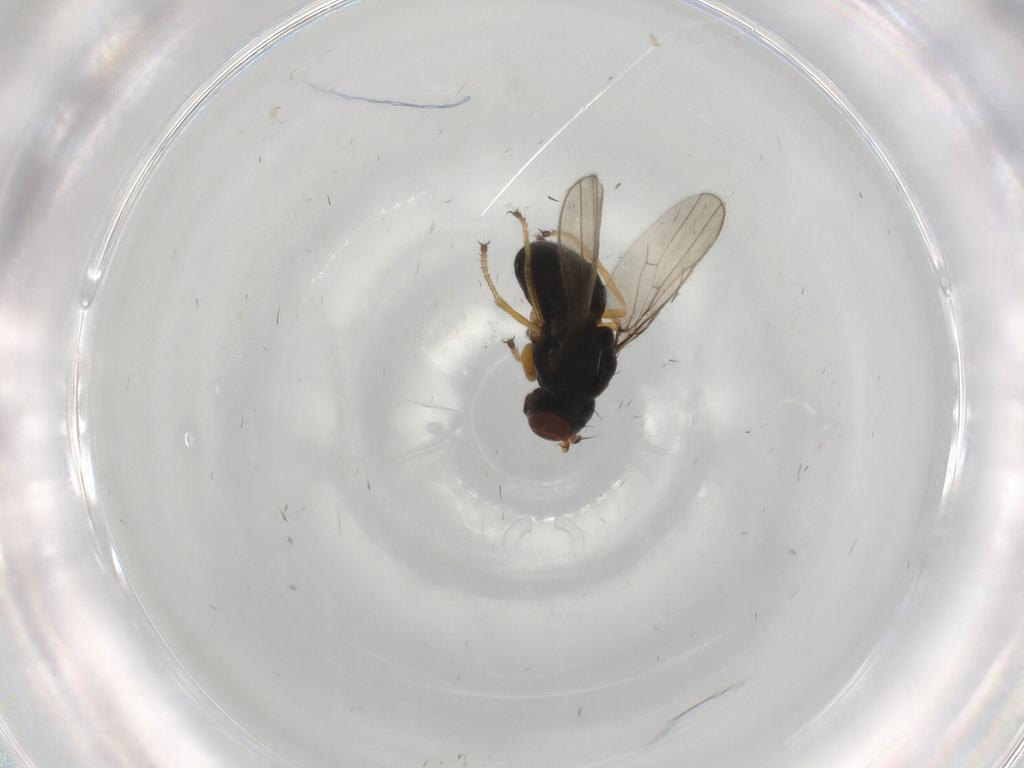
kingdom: Animalia
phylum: Arthropoda
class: Insecta
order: Diptera
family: Ephydridae
